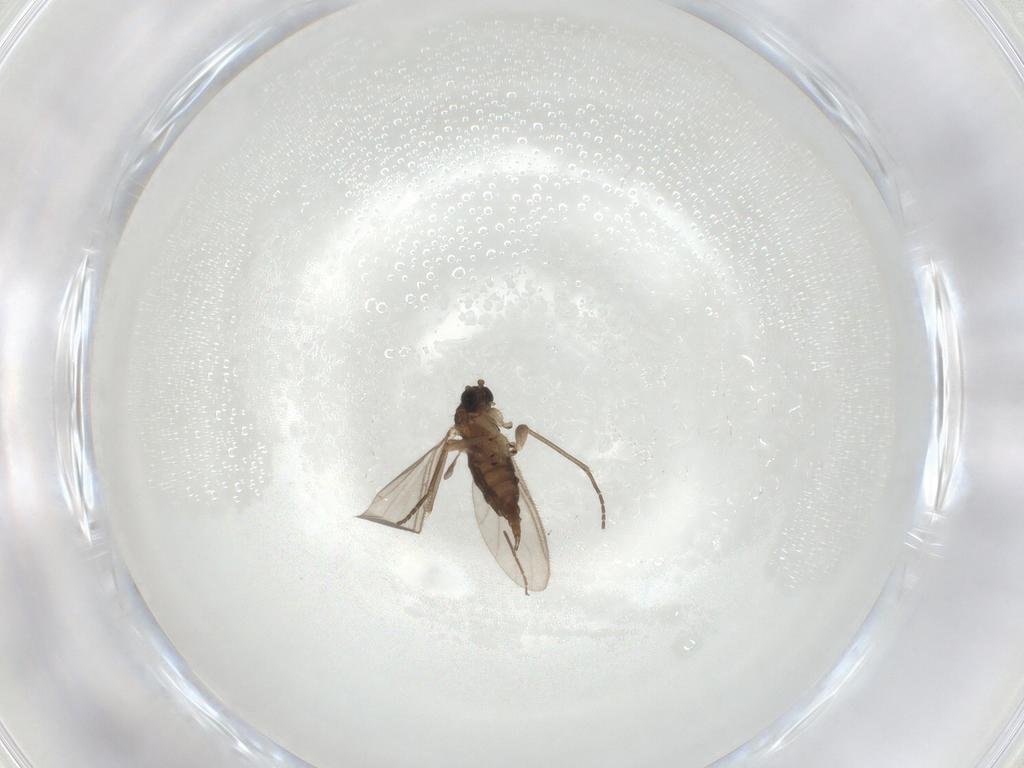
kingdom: Animalia
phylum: Arthropoda
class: Insecta
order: Diptera
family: Sciaridae
